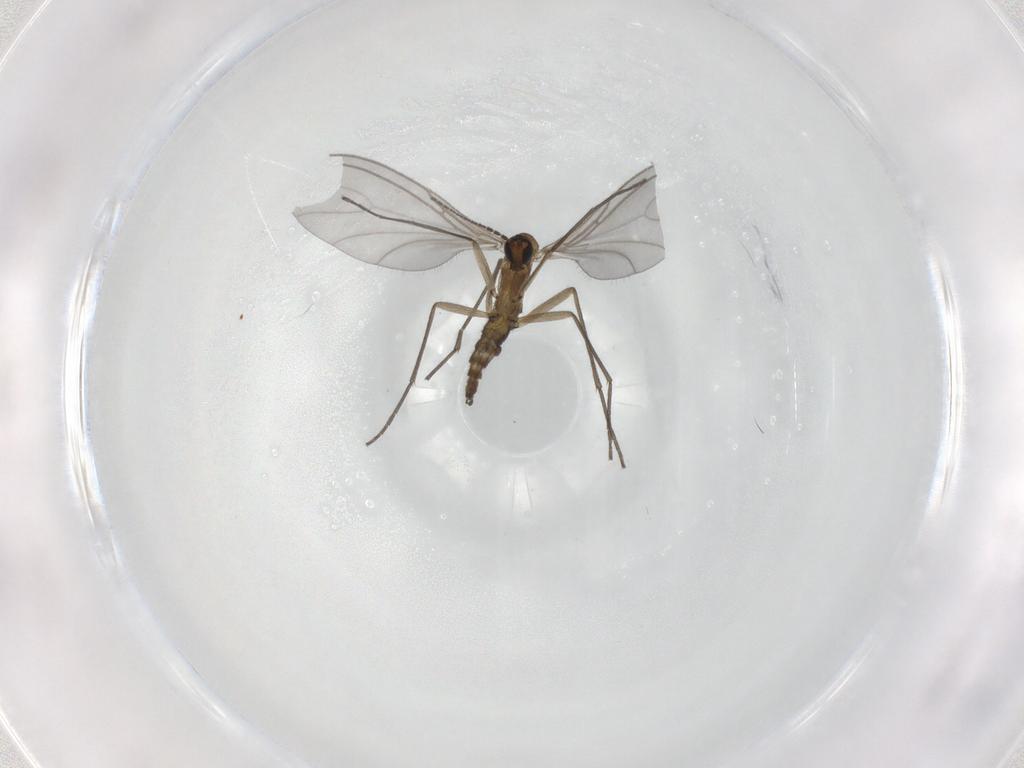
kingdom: Animalia
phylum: Arthropoda
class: Insecta
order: Diptera
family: Sciaridae
